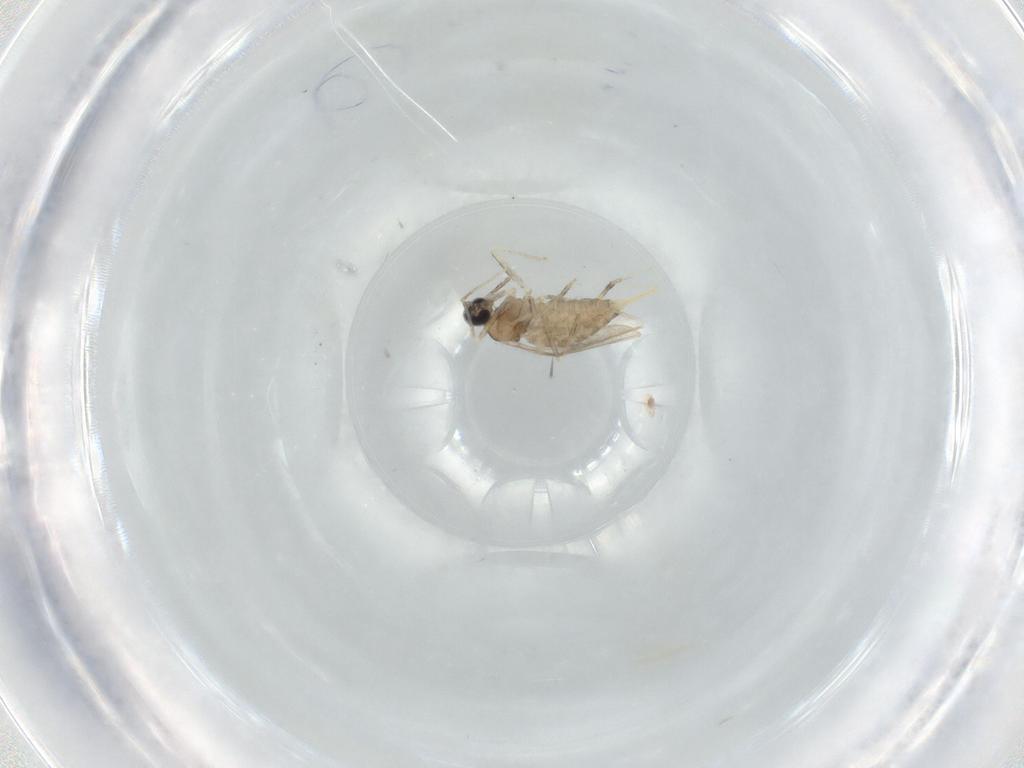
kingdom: Animalia
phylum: Arthropoda
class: Insecta
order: Diptera
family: Cecidomyiidae
